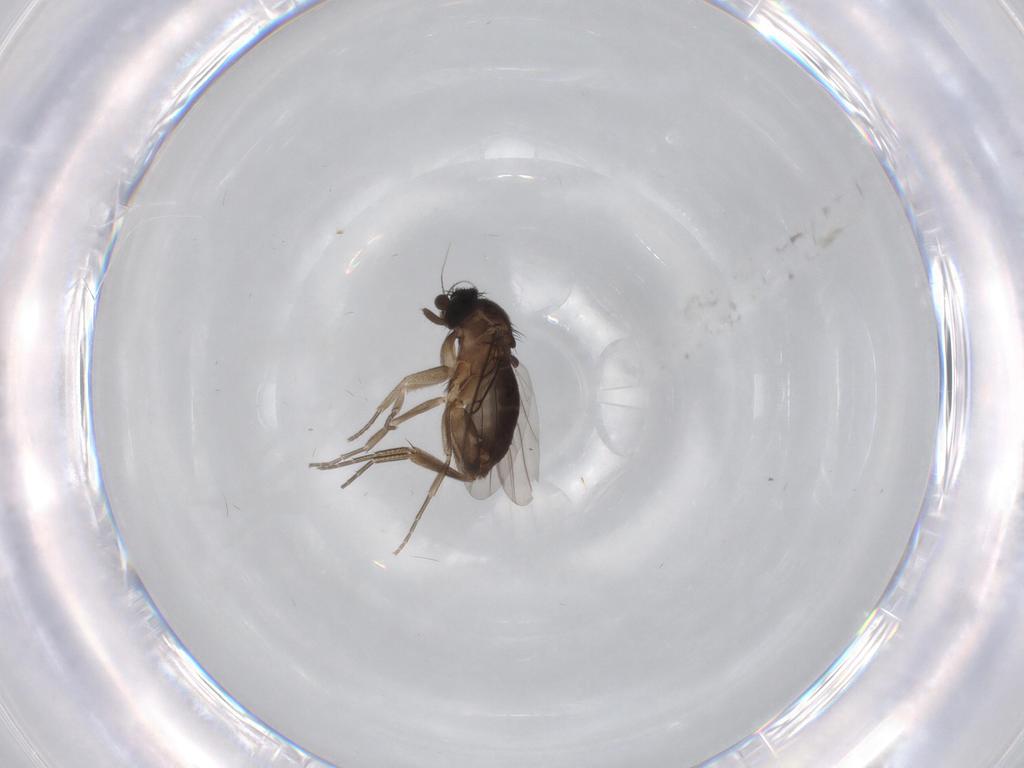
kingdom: Animalia
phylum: Arthropoda
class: Insecta
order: Diptera
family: Phoridae
